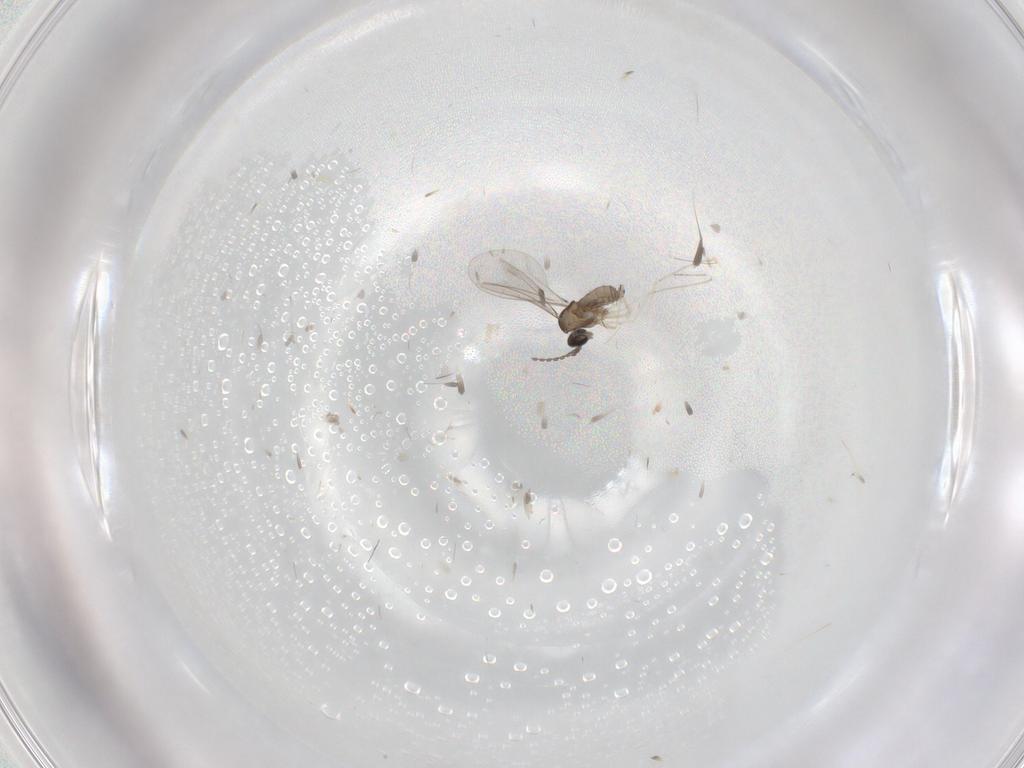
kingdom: Animalia
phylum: Arthropoda
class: Insecta
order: Diptera
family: Cecidomyiidae
